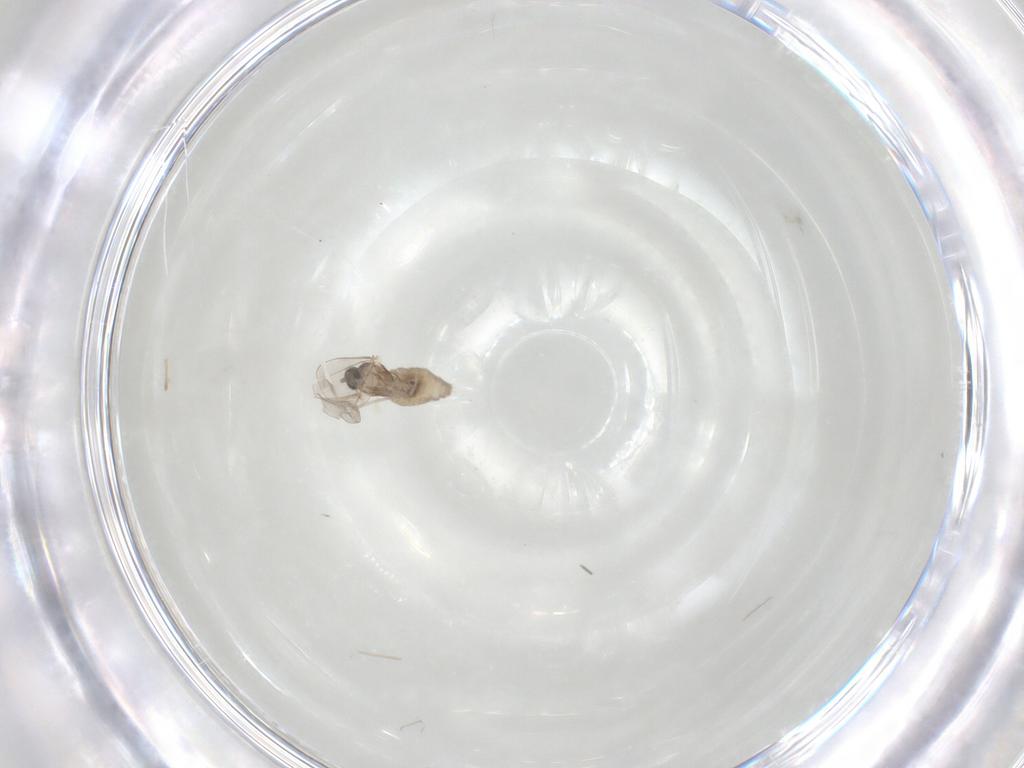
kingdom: Animalia
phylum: Arthropoda
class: Insecta
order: Diptera
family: Cecidomyiidae
